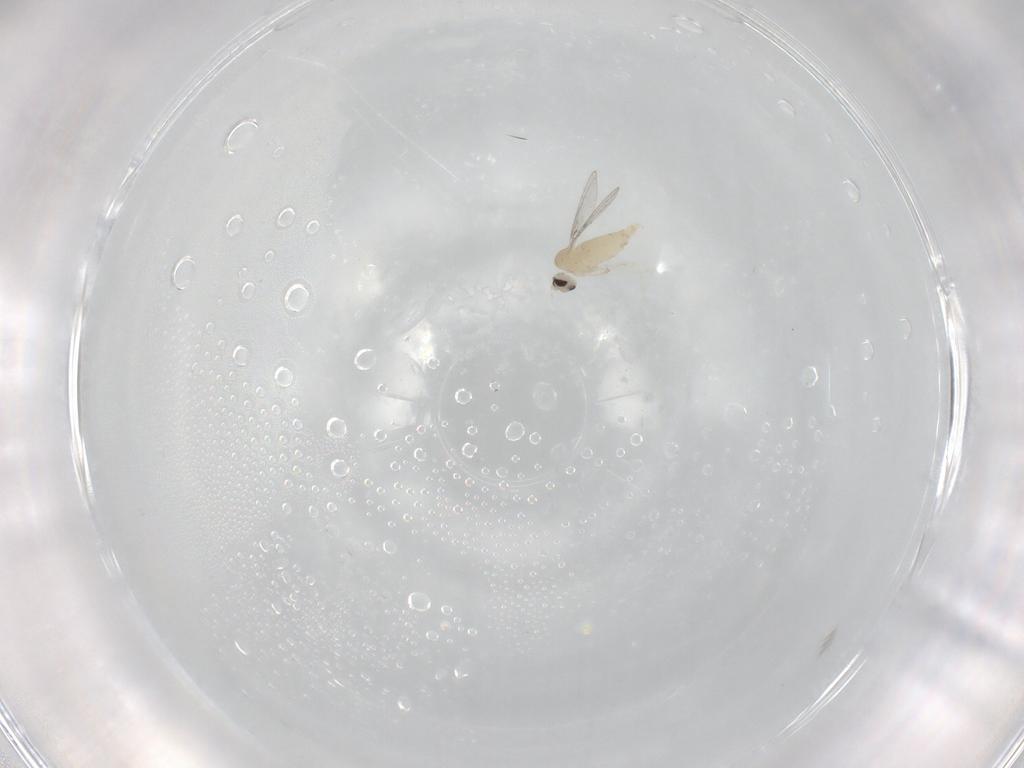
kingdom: Animalia
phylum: Arthropoda
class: Insecta
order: Diptera
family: Cecidomyiidae
